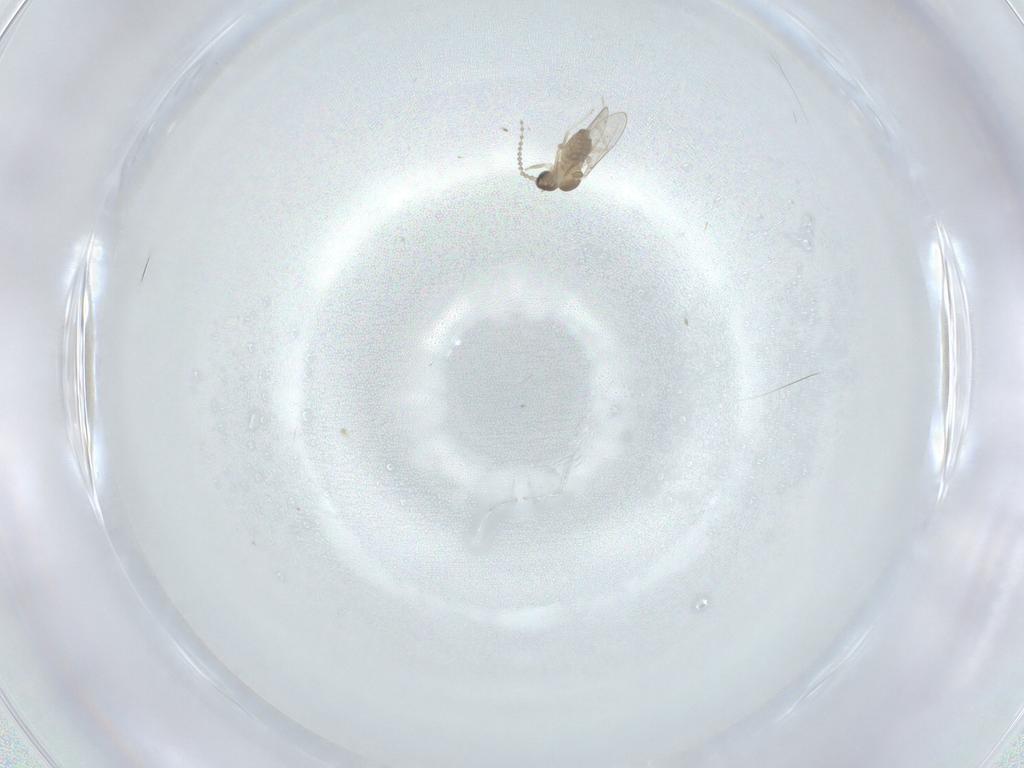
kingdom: Animalia
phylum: Arthropoda
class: Insecta
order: Diptera
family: Cecidomyiidae
